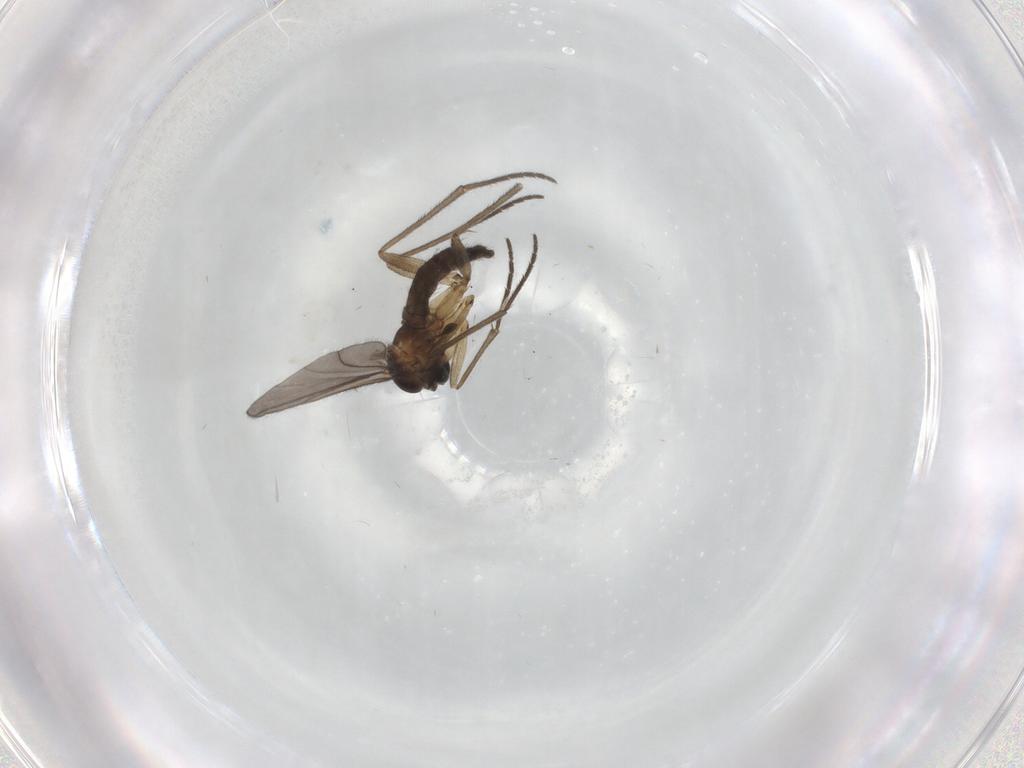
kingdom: Animalia
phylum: Arthropoda
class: Insecta
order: Diptera
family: Sciaridae
